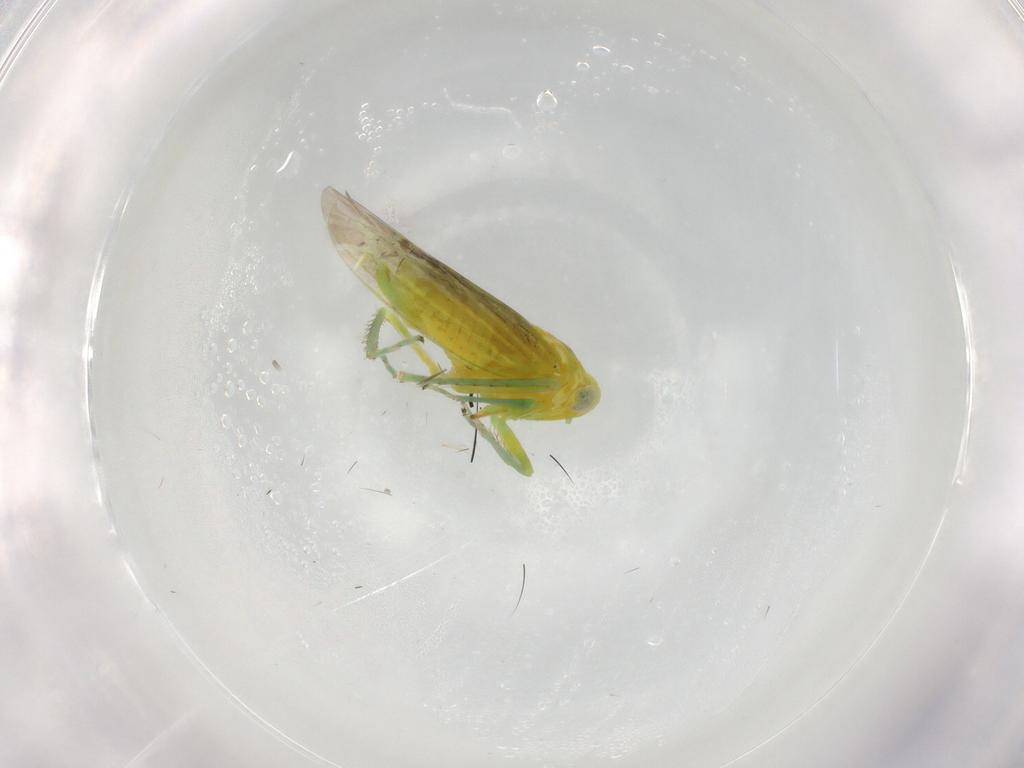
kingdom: Animalia
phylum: Arthropoda
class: Insecta
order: Hemiptera
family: Cicadellidae
